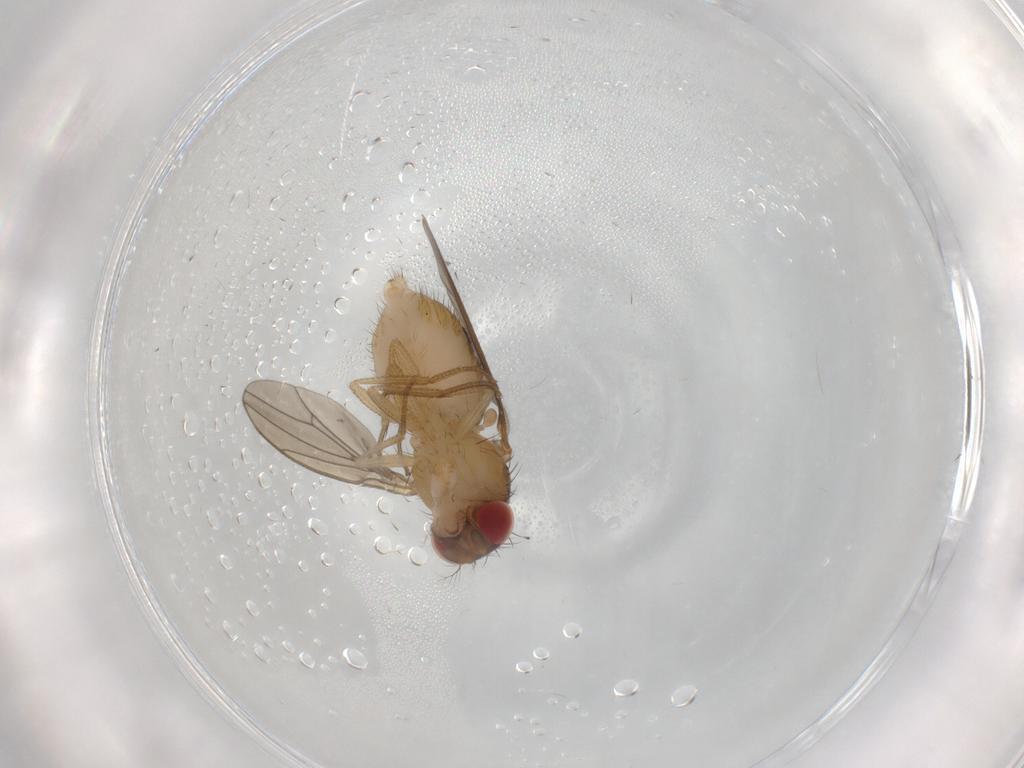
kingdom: Animalia
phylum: Arthropoda
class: Insecta
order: Diptera
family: Drosophilidae
